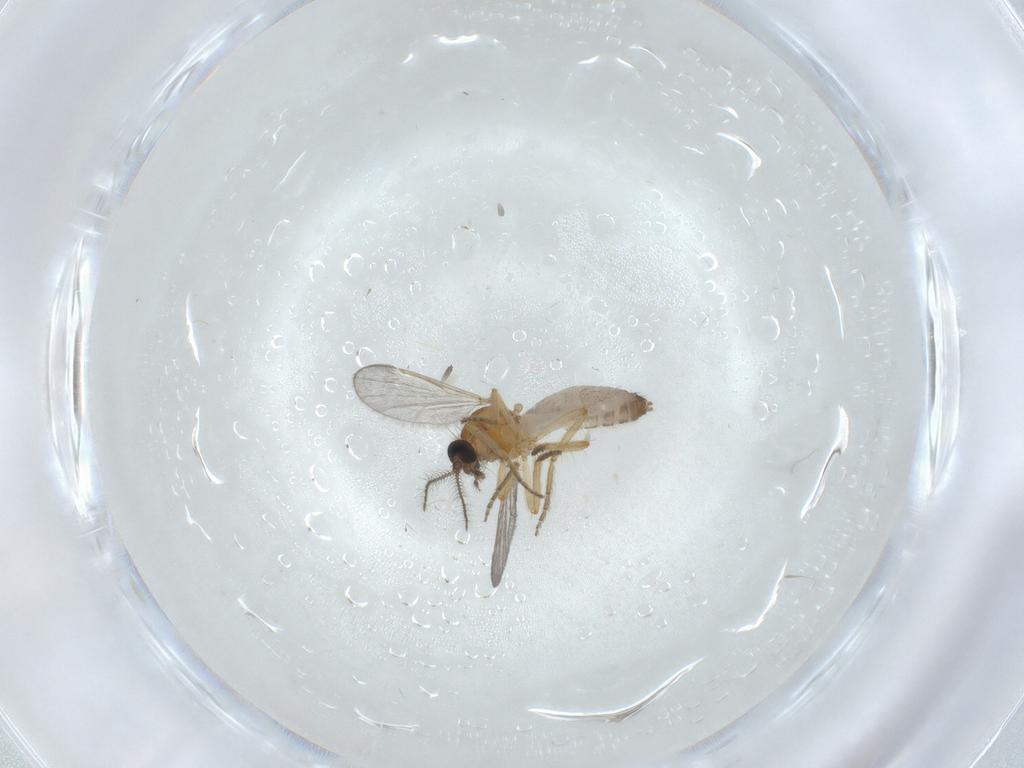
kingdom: Animalia
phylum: Arthropoda
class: Insecta
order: Diptera
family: Ceratopogonidae
